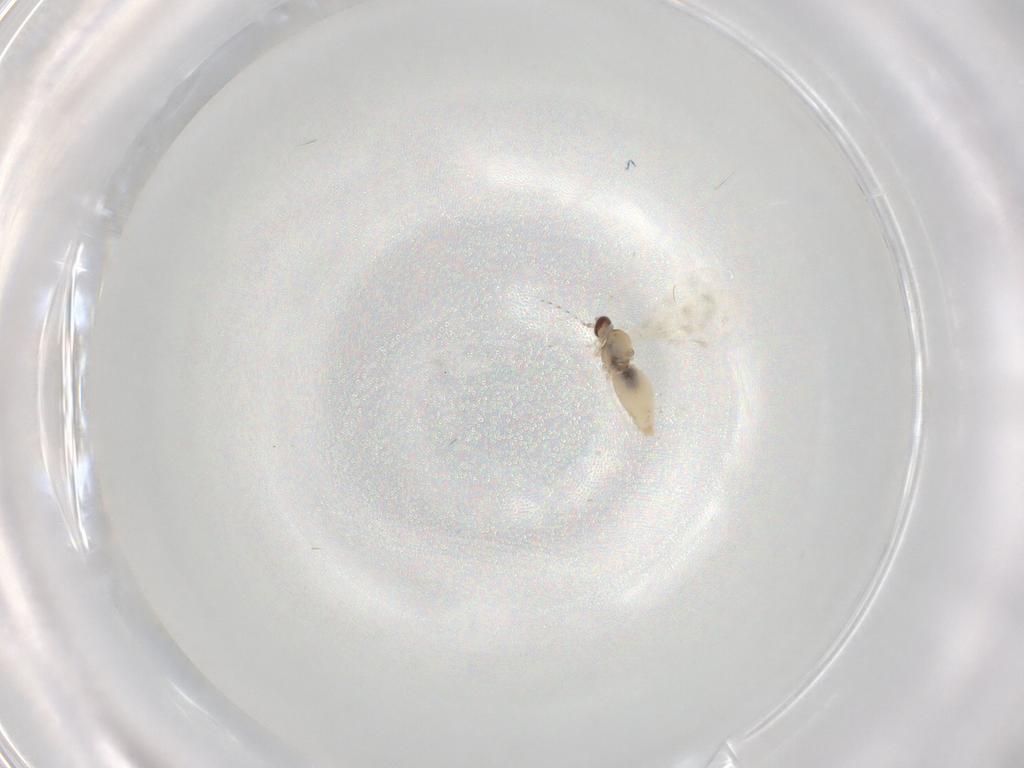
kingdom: Animalia
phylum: Arthropoda
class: Insecta
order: Diptera
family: Cecidomyiidae
